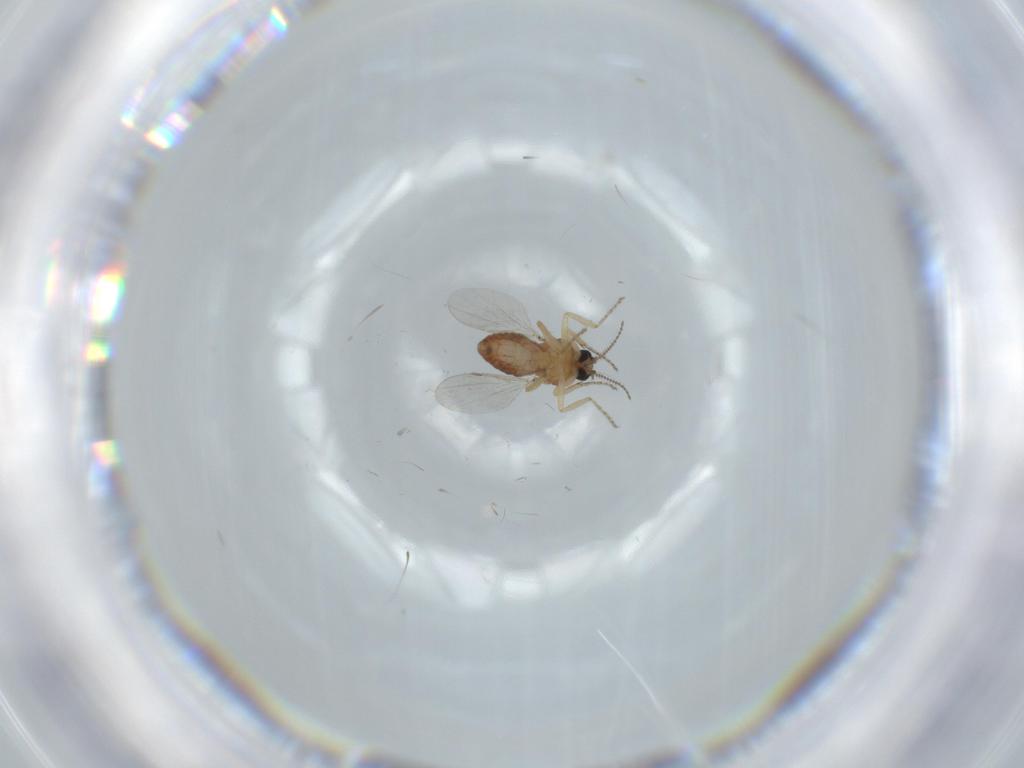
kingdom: Animalia
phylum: Arthropoda
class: Insecta
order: Diptera
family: Ceratopogonidae
